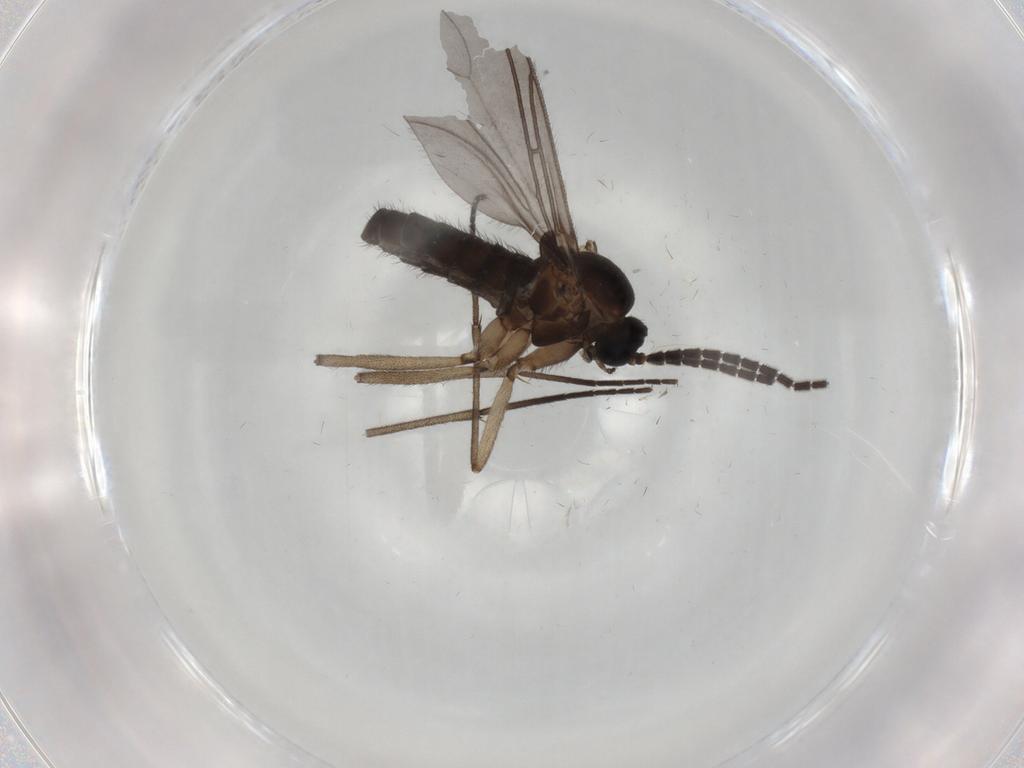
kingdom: Animalia
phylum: Arthropoda
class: Insecta
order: Diptera
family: Sciaridae
